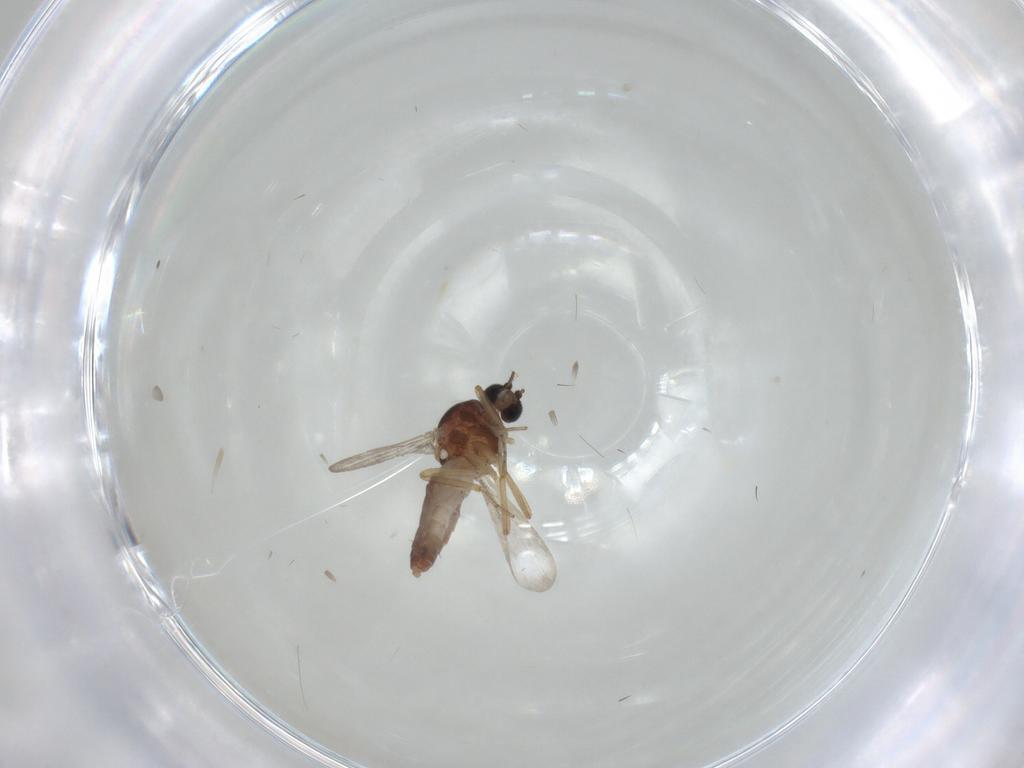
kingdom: Animalia
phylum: Arthropoda
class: Insecta
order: Diptera
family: Ceratopogonidae
